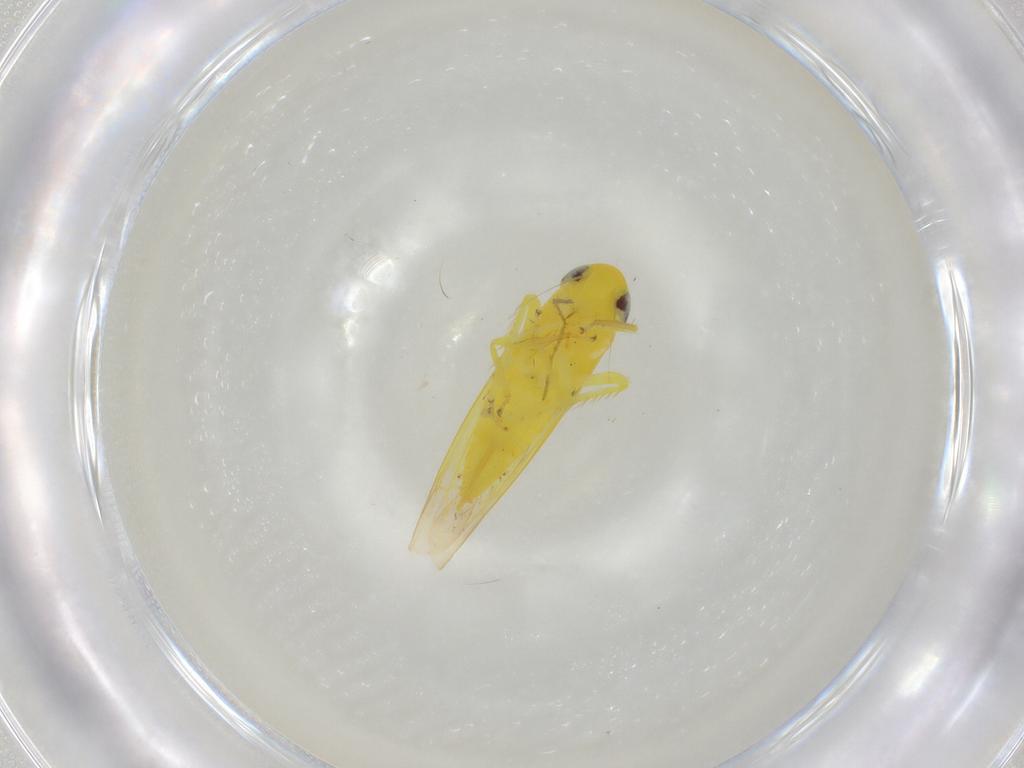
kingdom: Animalia
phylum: Arthropoda
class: Insecta
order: Hemiptera
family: Cicadellidae
